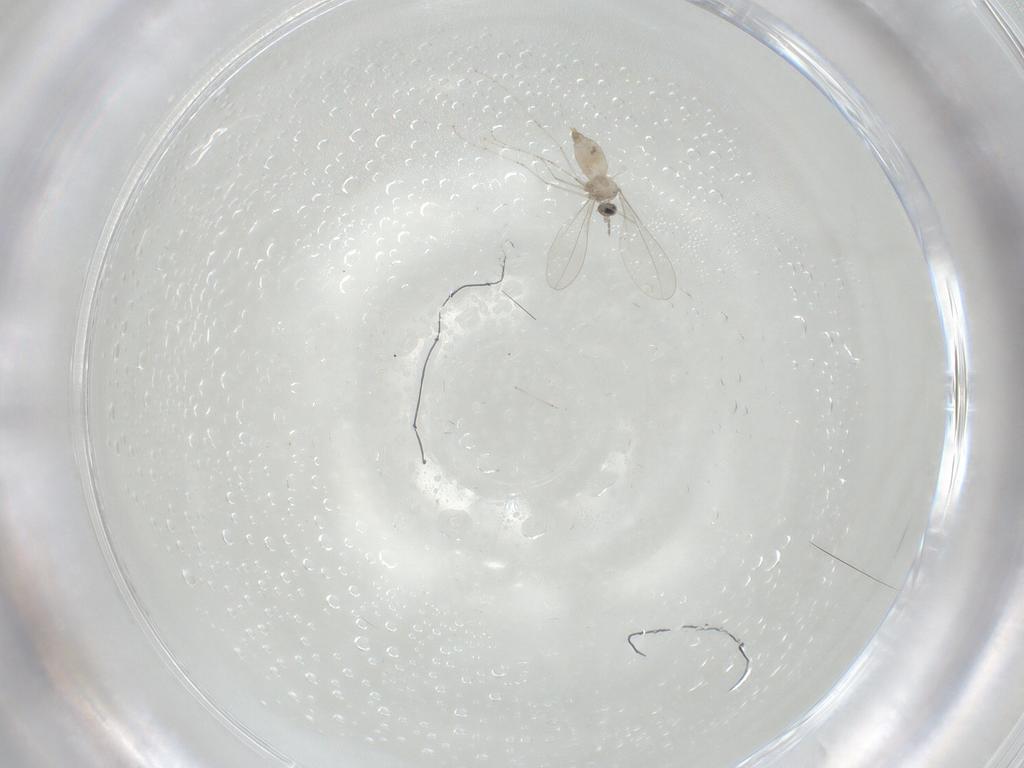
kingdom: Animalia
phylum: Arthropoda
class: Insecta
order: Diptera
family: Cecidomyiidae
